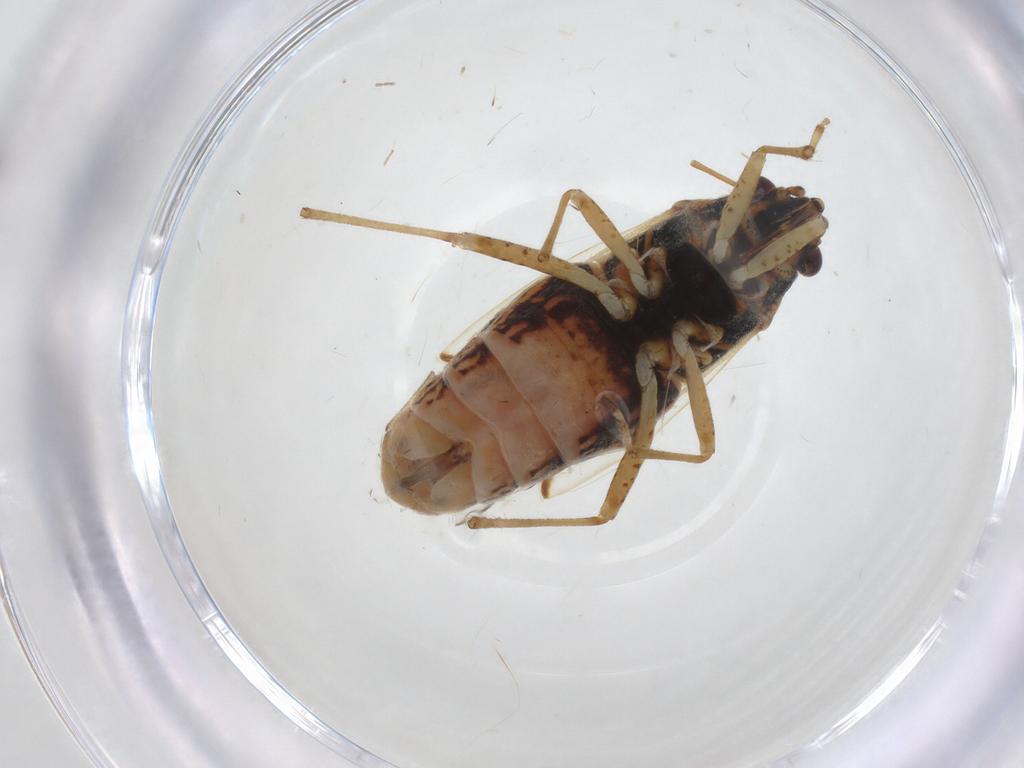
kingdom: Animalia
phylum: Arthropoda
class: Insecta
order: Hemiptera
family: Lygaeidae
